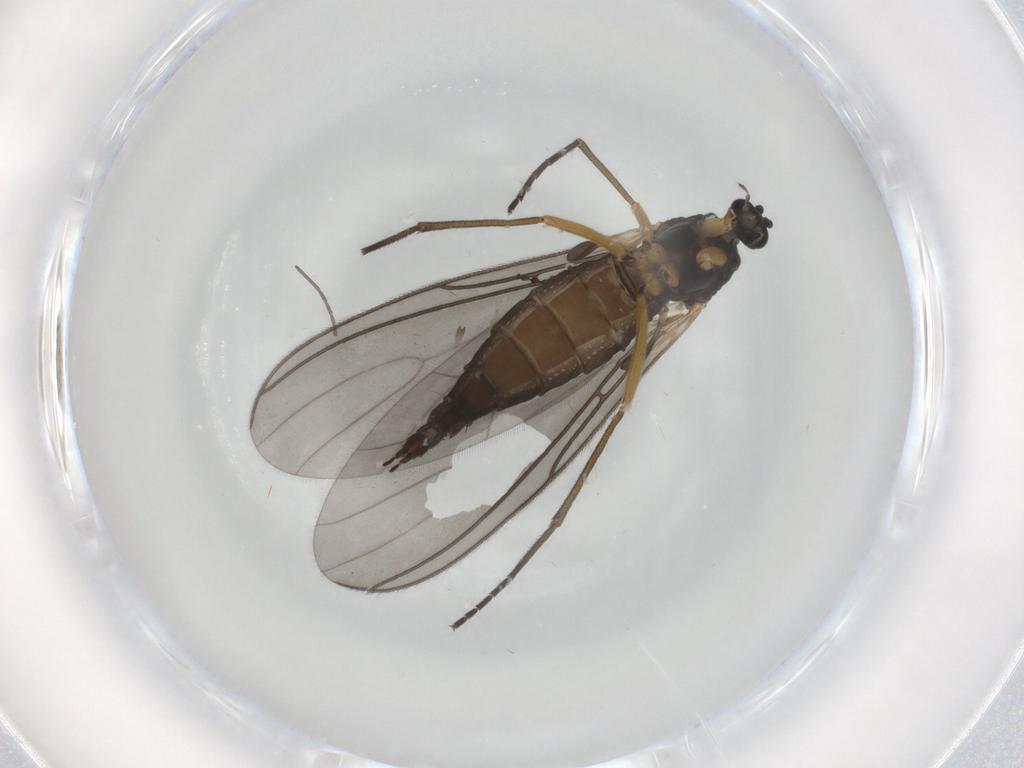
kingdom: Animalia
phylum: Arthropoda
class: Insecta
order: Diptera
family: Sciaridae
